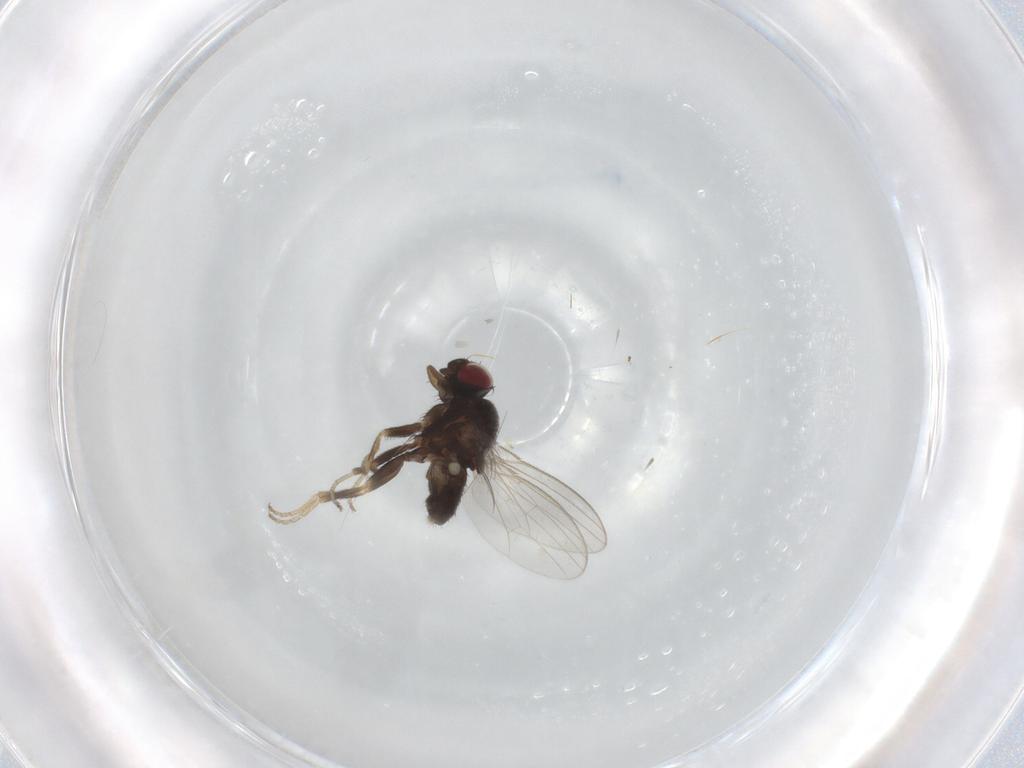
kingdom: Animalia
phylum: Arthropoda
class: Insecta
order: Diptera
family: Milichiidae
